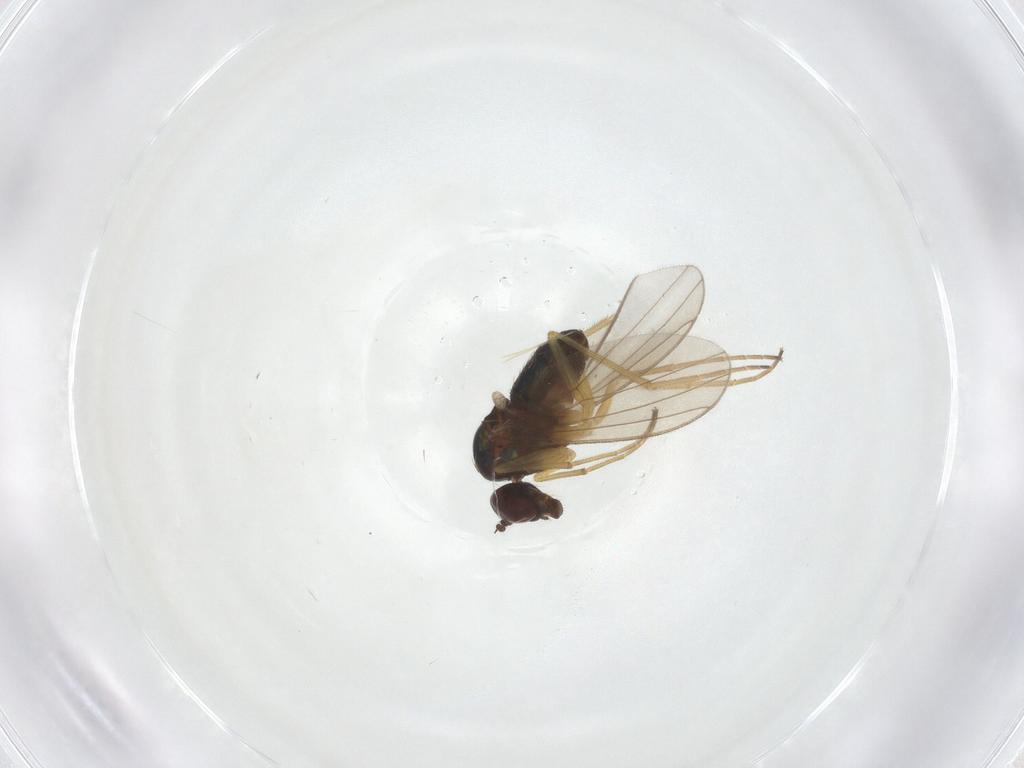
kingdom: Animalia
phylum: Arthropoda
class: Insecta
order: Diptera
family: Dolichopodidae
